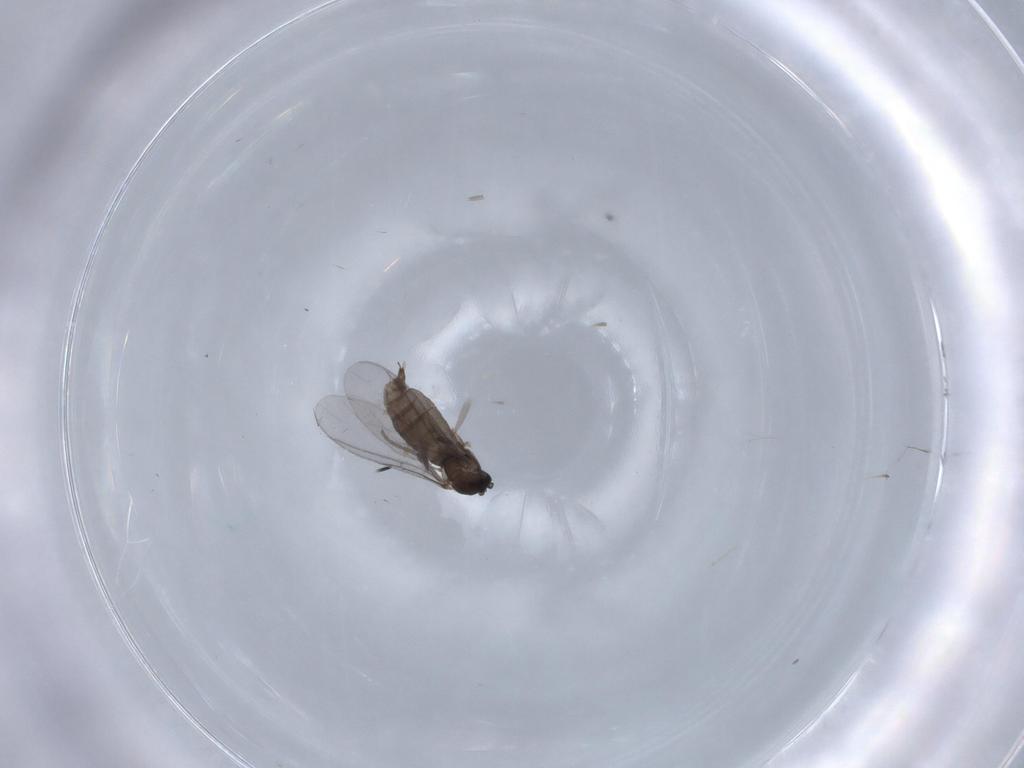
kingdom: Animalia
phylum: Arthropoda
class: Insecta
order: Diptera
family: Sciaridae
